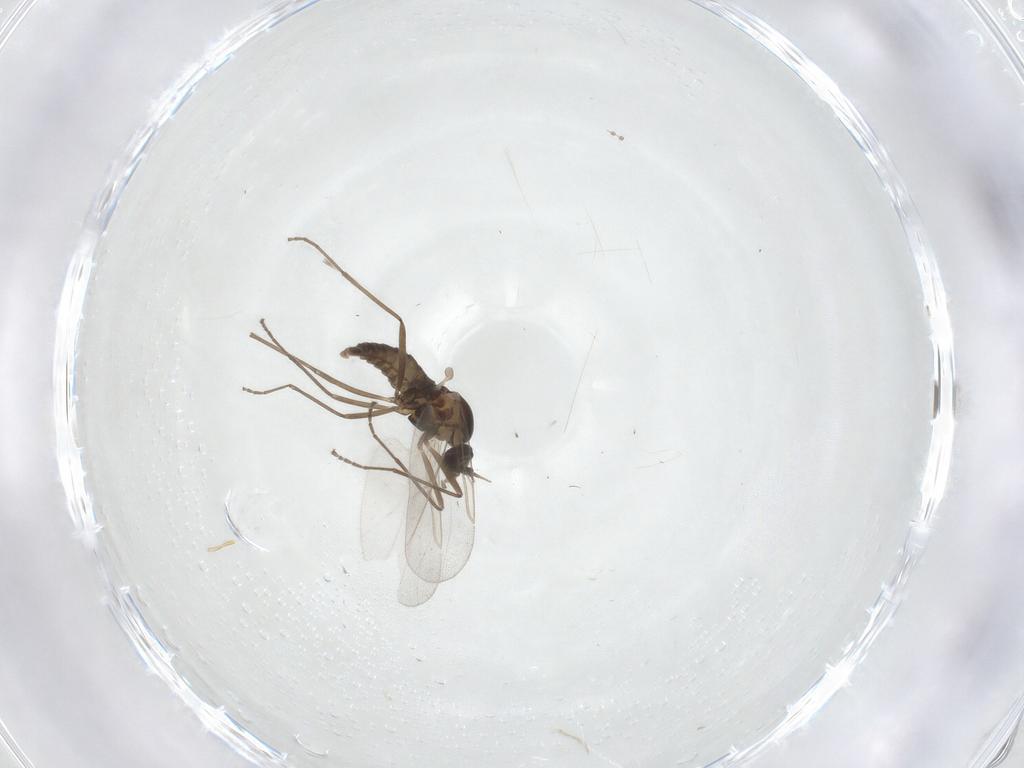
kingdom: Animalia
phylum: Arthropoda
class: Insecta
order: Diptera
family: Cecidomyiidae
